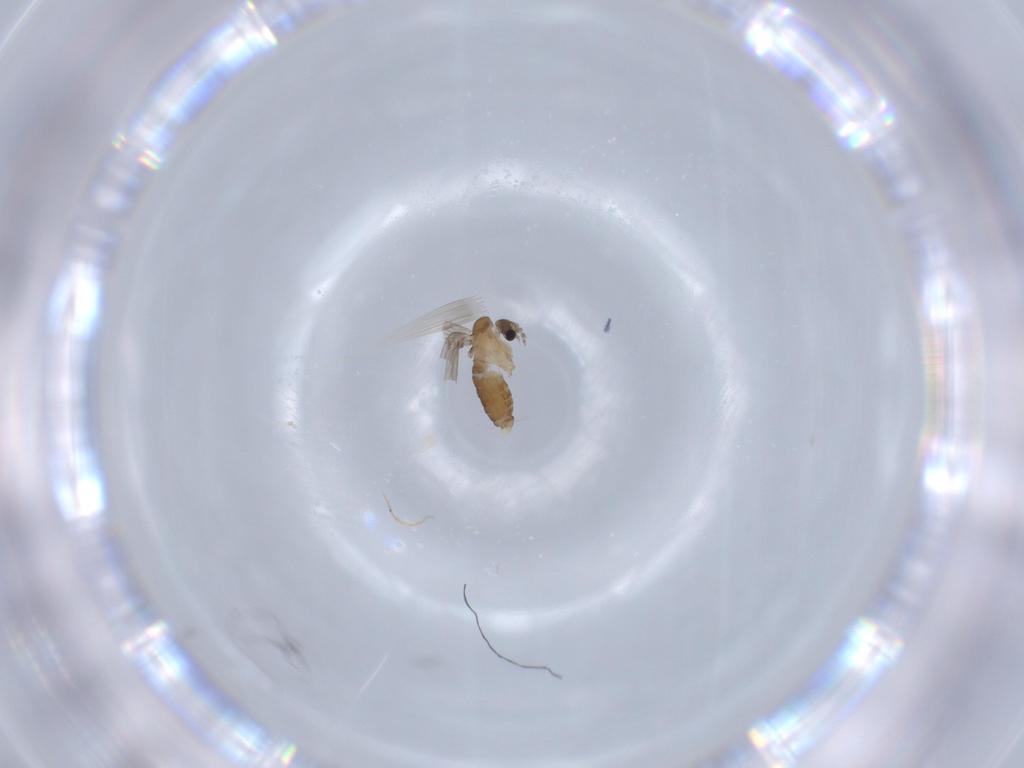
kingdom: Animalia
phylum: Arthropoda
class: Insecta
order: Diptera
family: Psychodidae
